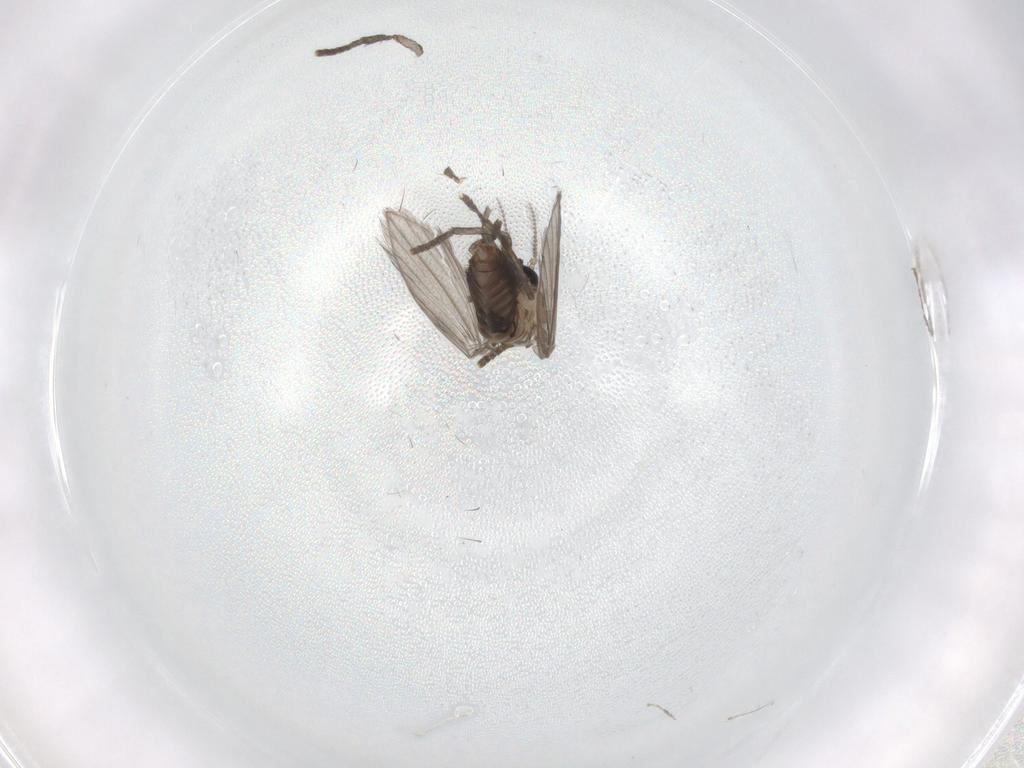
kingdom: Animalia
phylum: Arthropoda
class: Insecta
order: Diptera
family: Psychodidae
